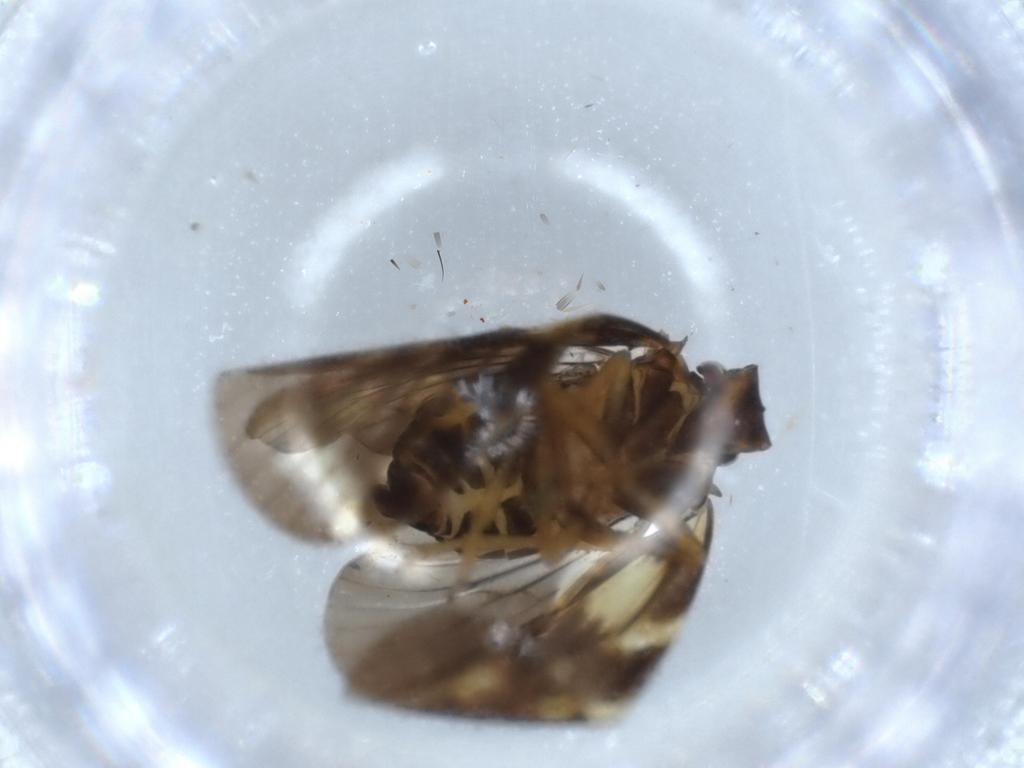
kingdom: Animalia
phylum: Arthropoda
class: Insecta
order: Hemiptera
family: Cixiidae
